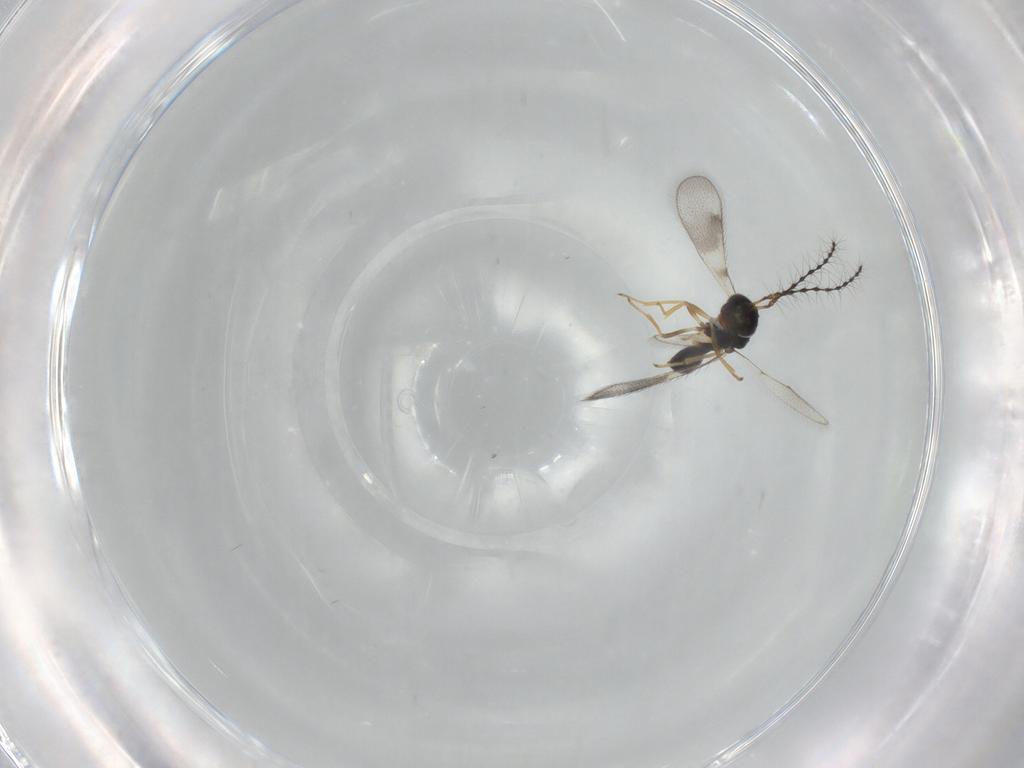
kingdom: Animalia
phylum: Arthropoda
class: Insecta
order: Hymenoptera
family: Diparidae
